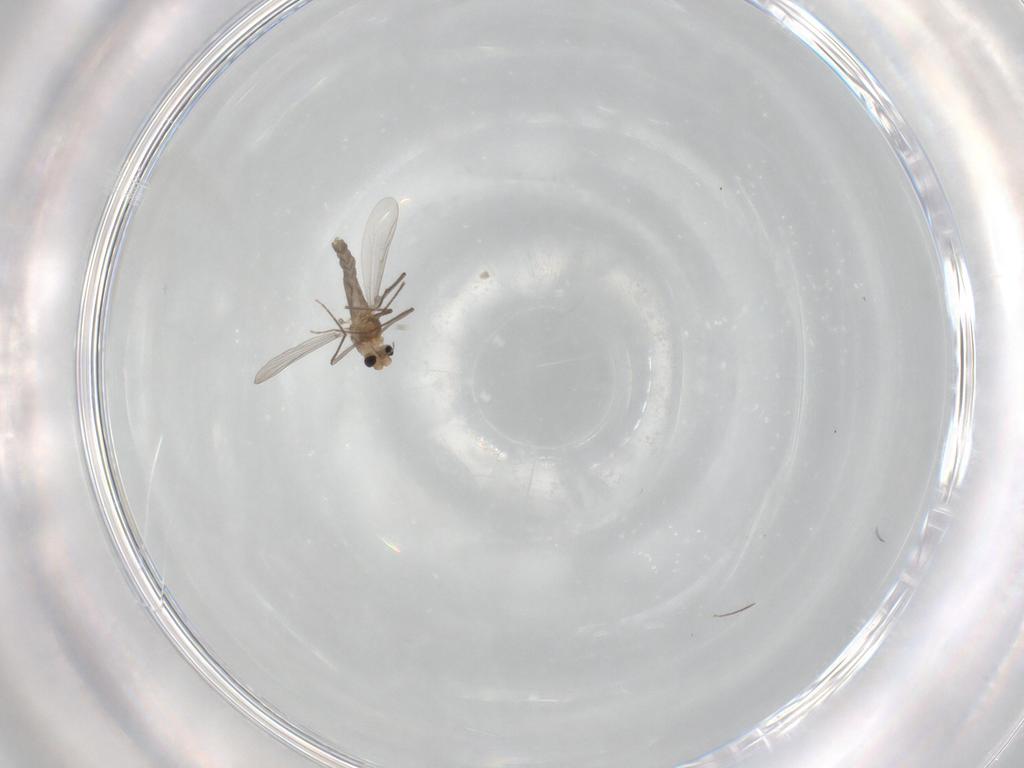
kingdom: Animalia
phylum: Arthropoda
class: Insecta
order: Diptera
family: Chironomidae
